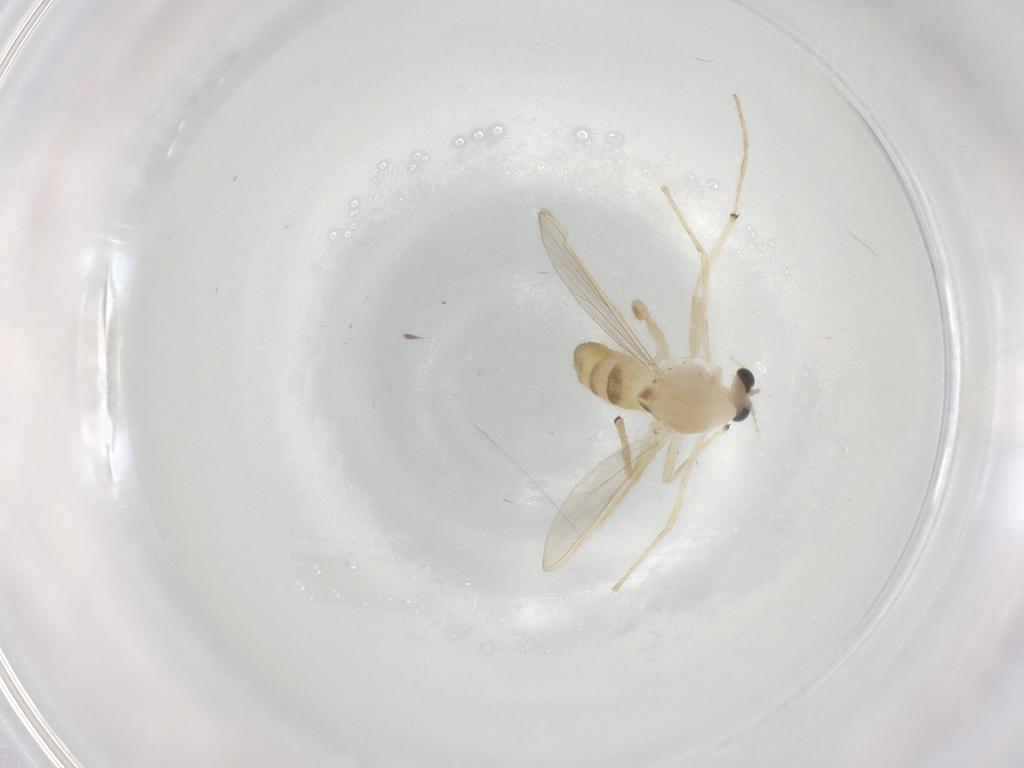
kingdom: Animalia
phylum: Arthropoda
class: Insecta
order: Diptera
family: Chironomidae
